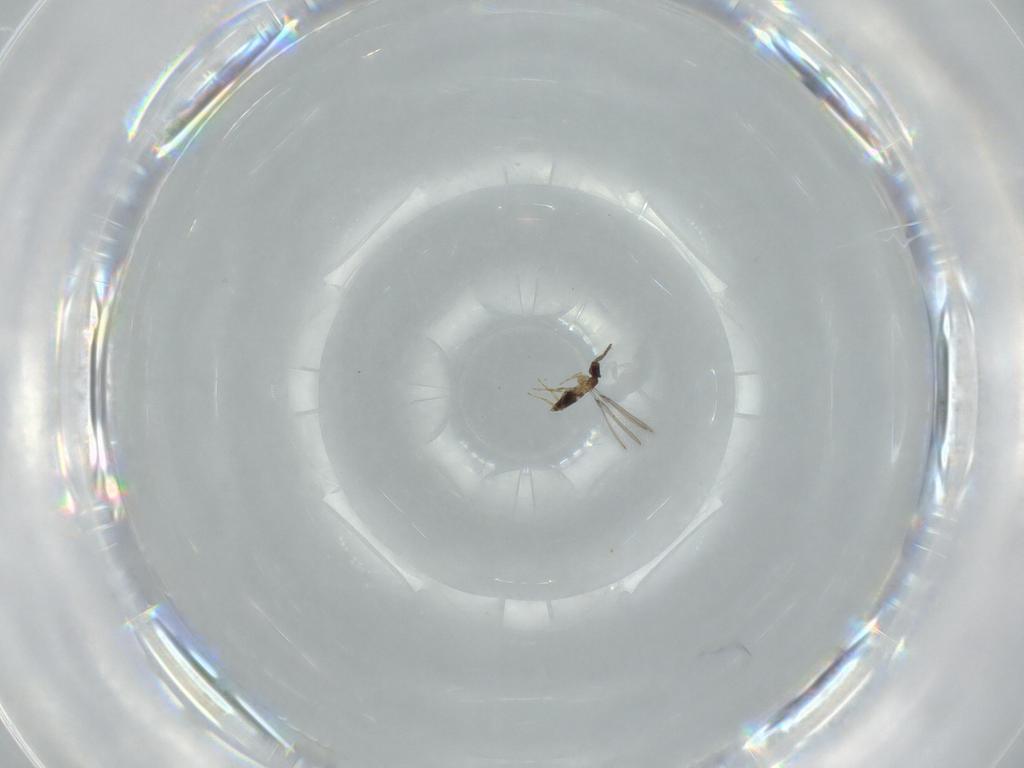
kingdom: Animalia
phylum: Arthropoda
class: Insecta
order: Hymenoptera
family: Mymaridae
